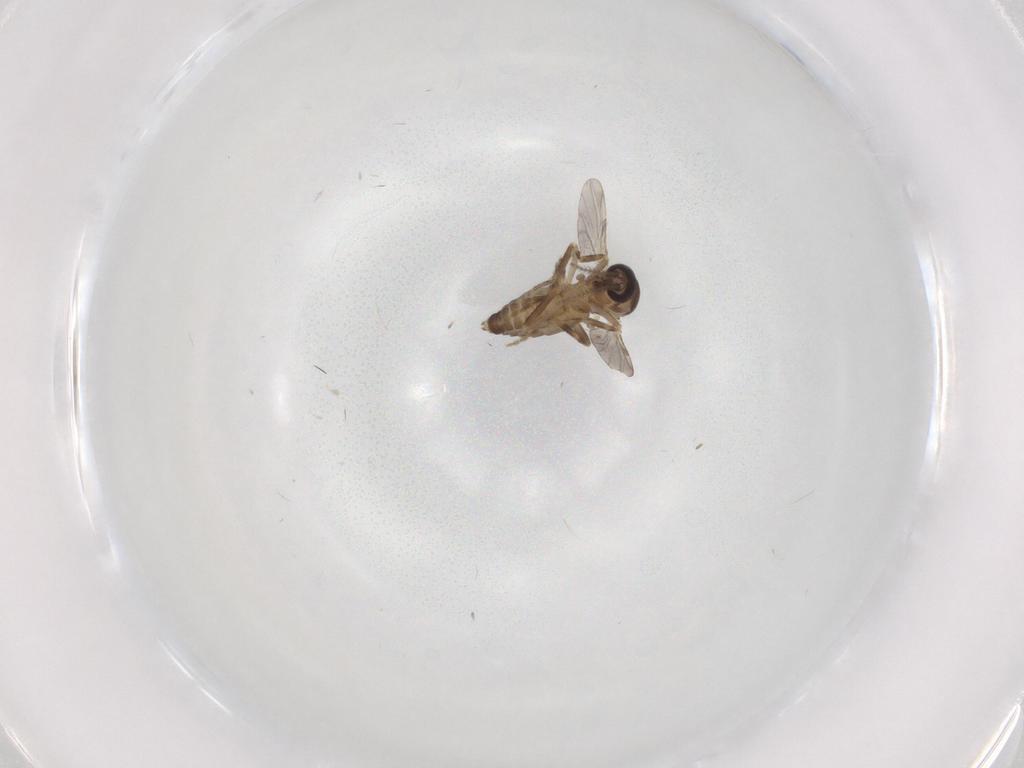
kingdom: Animalia
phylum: Arthropoda
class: Insecta
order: Diptera
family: Ceratopogonidae
